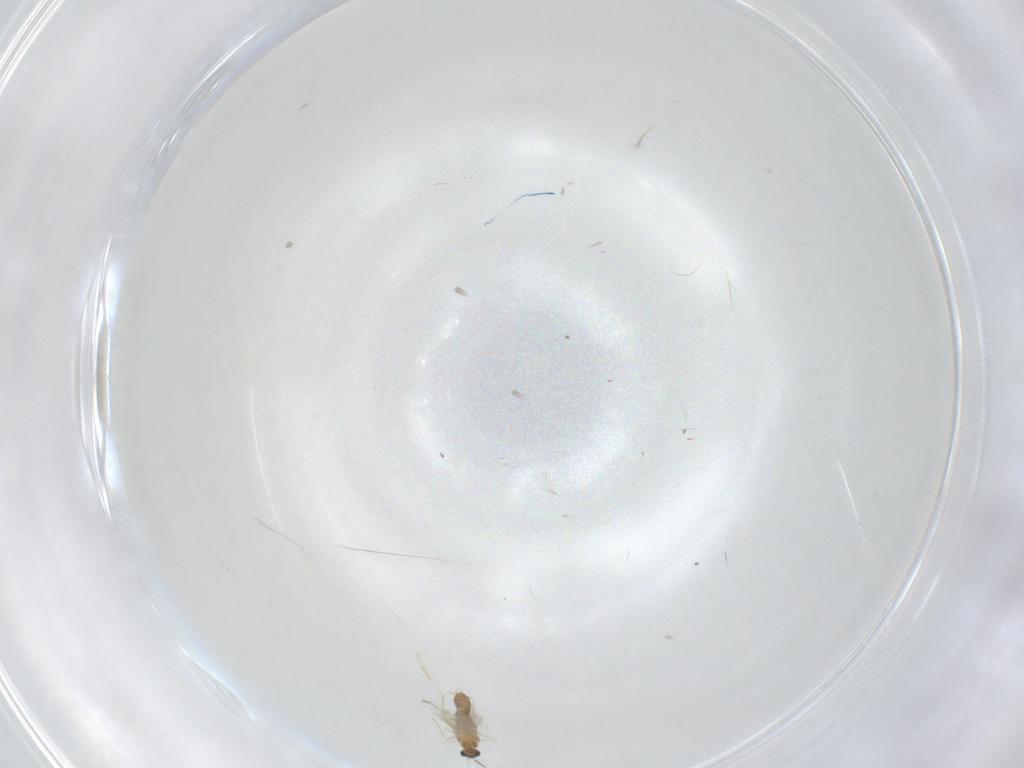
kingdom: Animalia
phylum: Arthropoda
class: Insecta
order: Diptera
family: Cecidomyiidae
